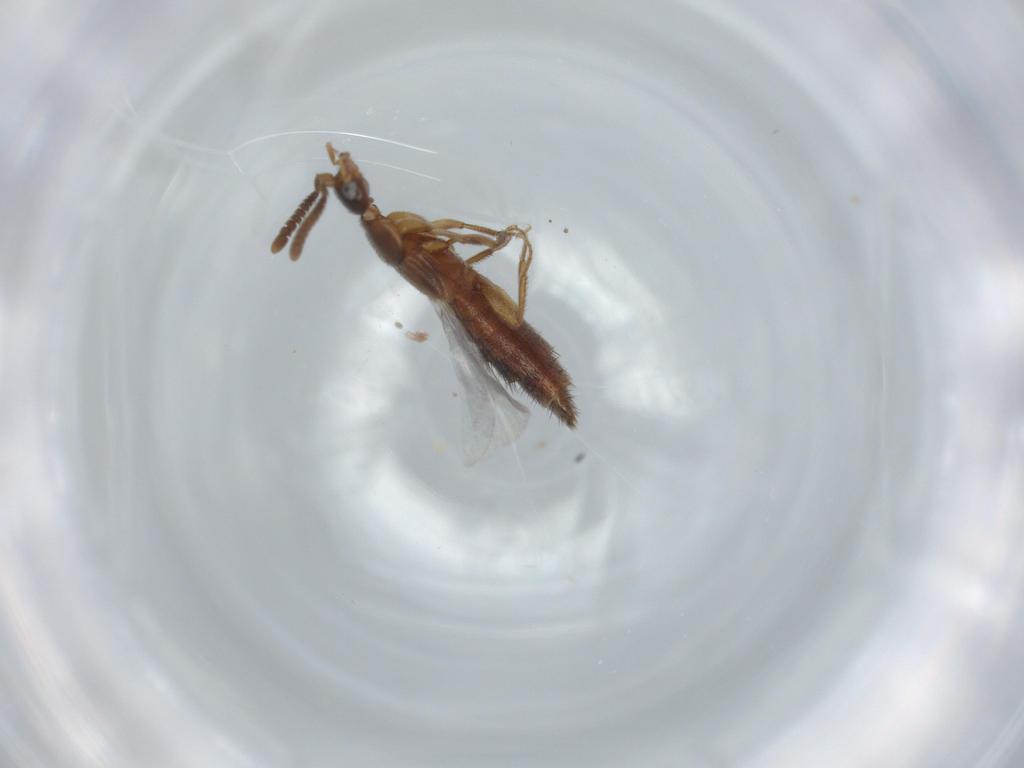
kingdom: Animalia
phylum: Arthropoda
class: Insecta
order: Coleoptera
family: Staphylinidae
